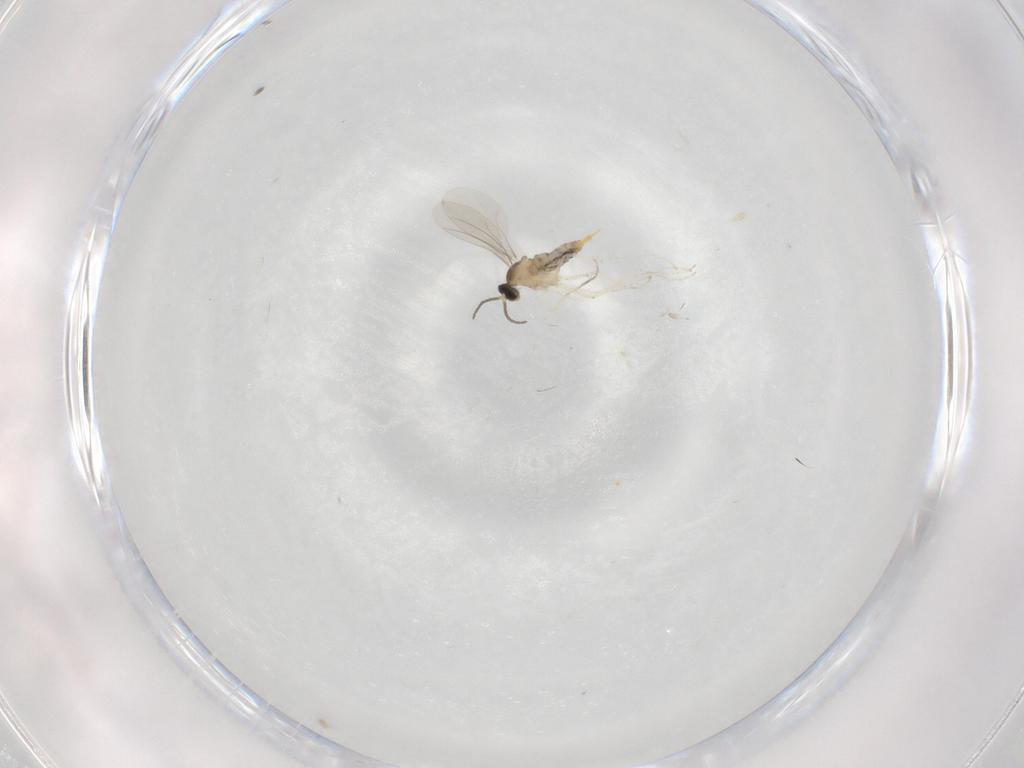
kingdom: Animalia
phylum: Arthropoda
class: Insecta
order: Diptera
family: Cecidomyiidae
